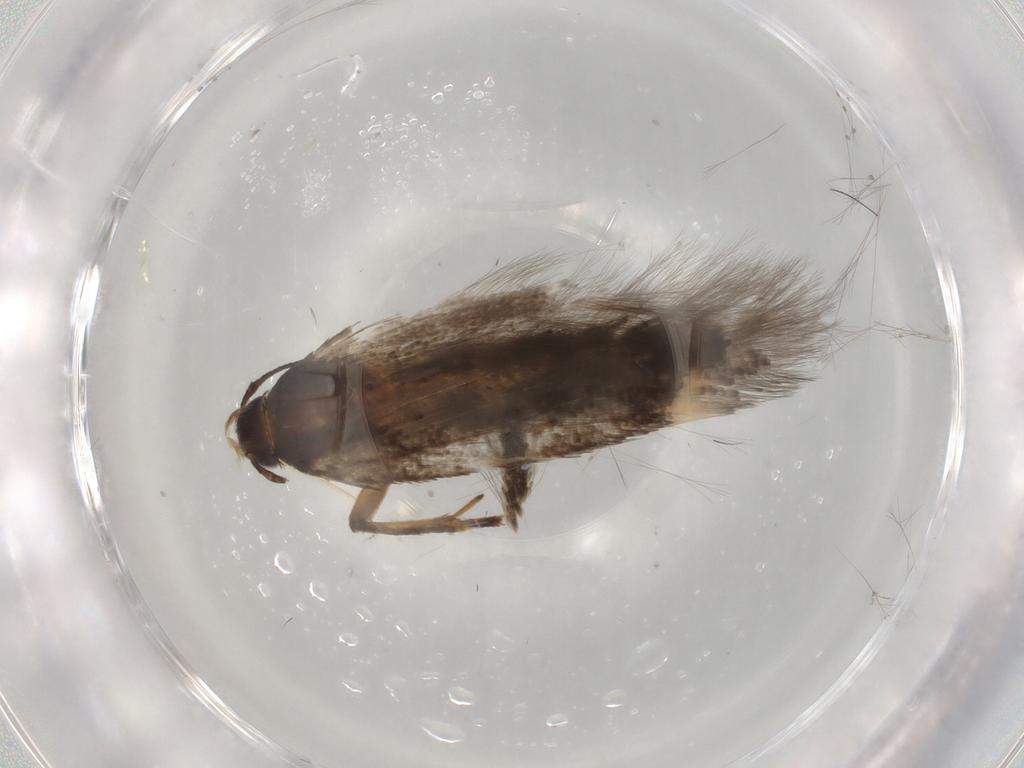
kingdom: Animalia
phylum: Arthropoda
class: Insecta
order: Lepidoptera
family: Gelechiidae
